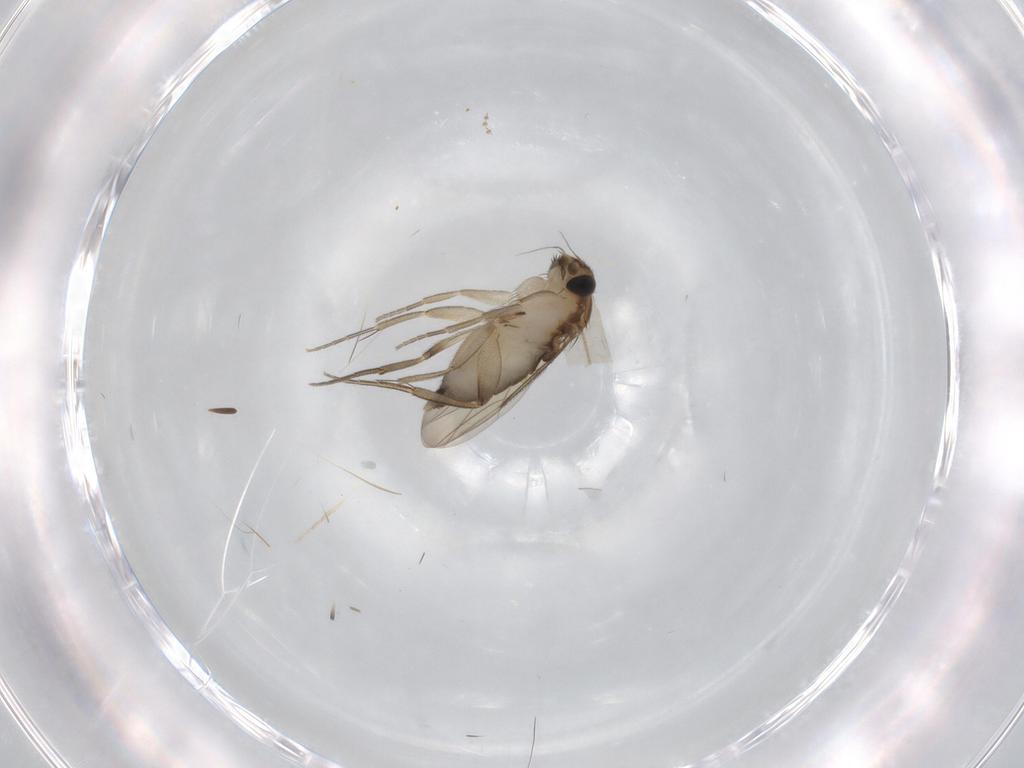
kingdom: Animalia
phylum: Arthropoda
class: Insecta
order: Diptera
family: Phoridae
